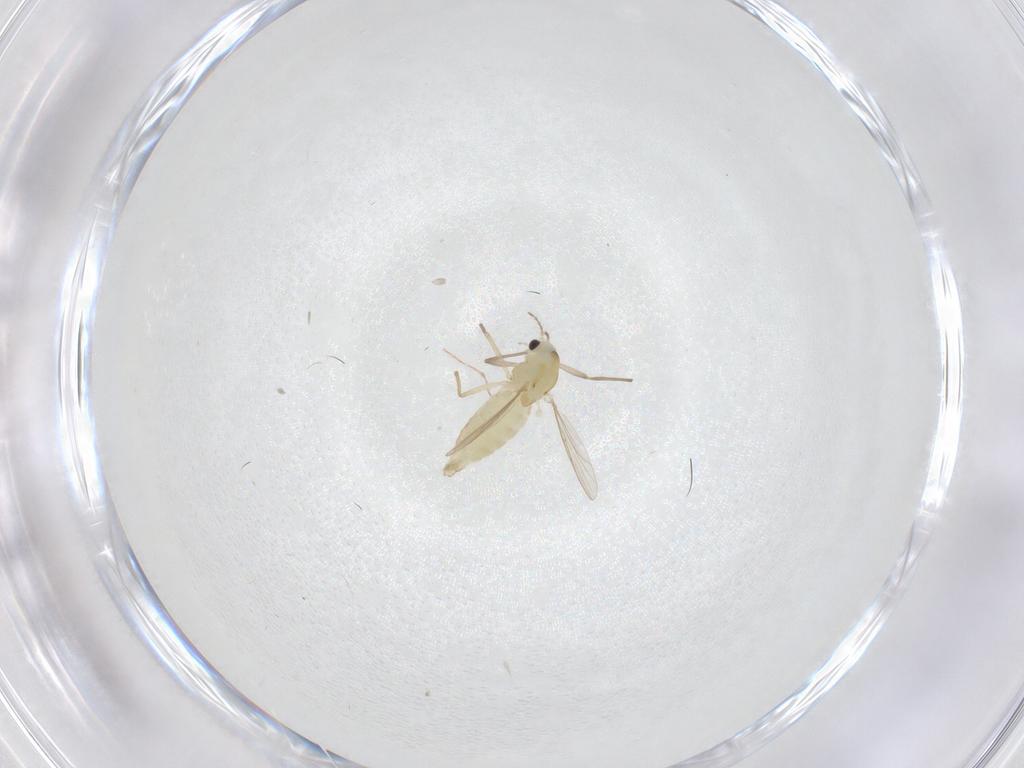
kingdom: Animalia
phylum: Arthropoda
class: Insecta
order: Diptera
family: Chironomidae
